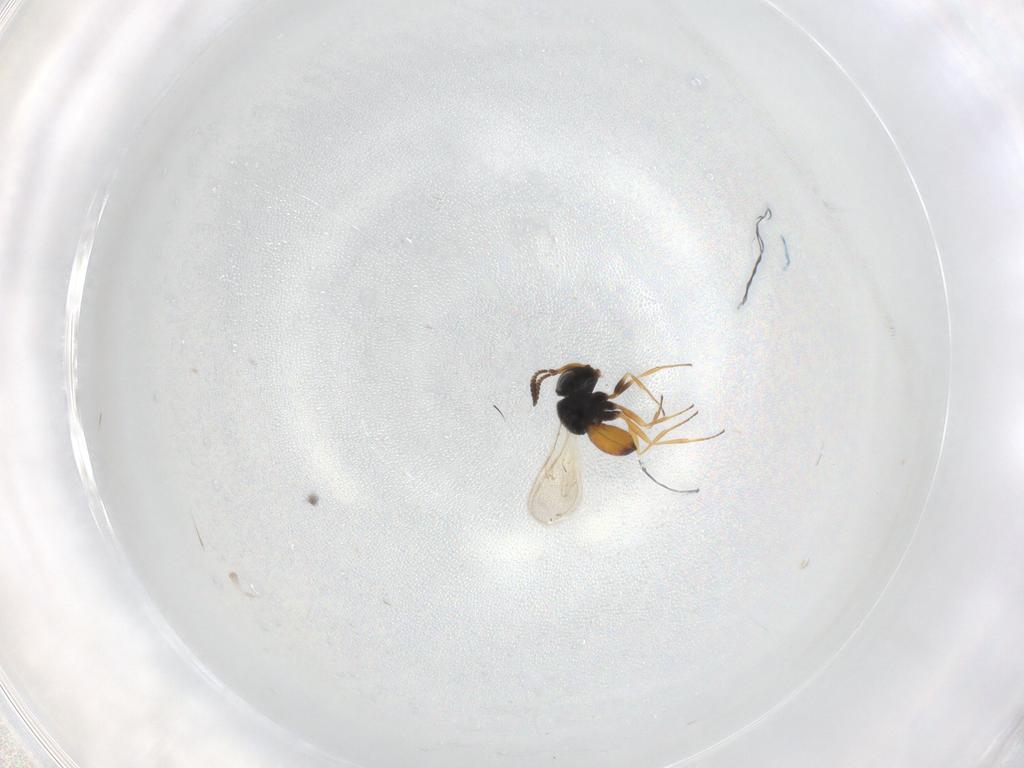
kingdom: Animalia
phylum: Arthropoda
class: Insecta
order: Hymenoptera
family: Scelionidae
